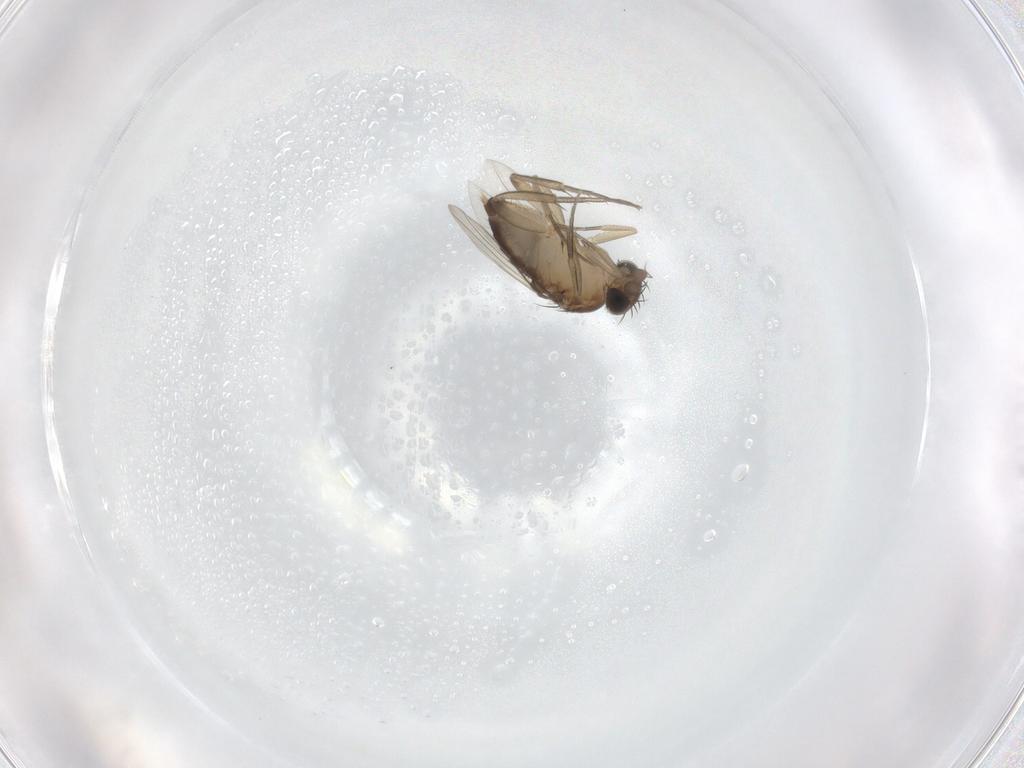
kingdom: Animalia
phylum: Arthropoda
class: Insecta
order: Diptera
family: Phoridae
